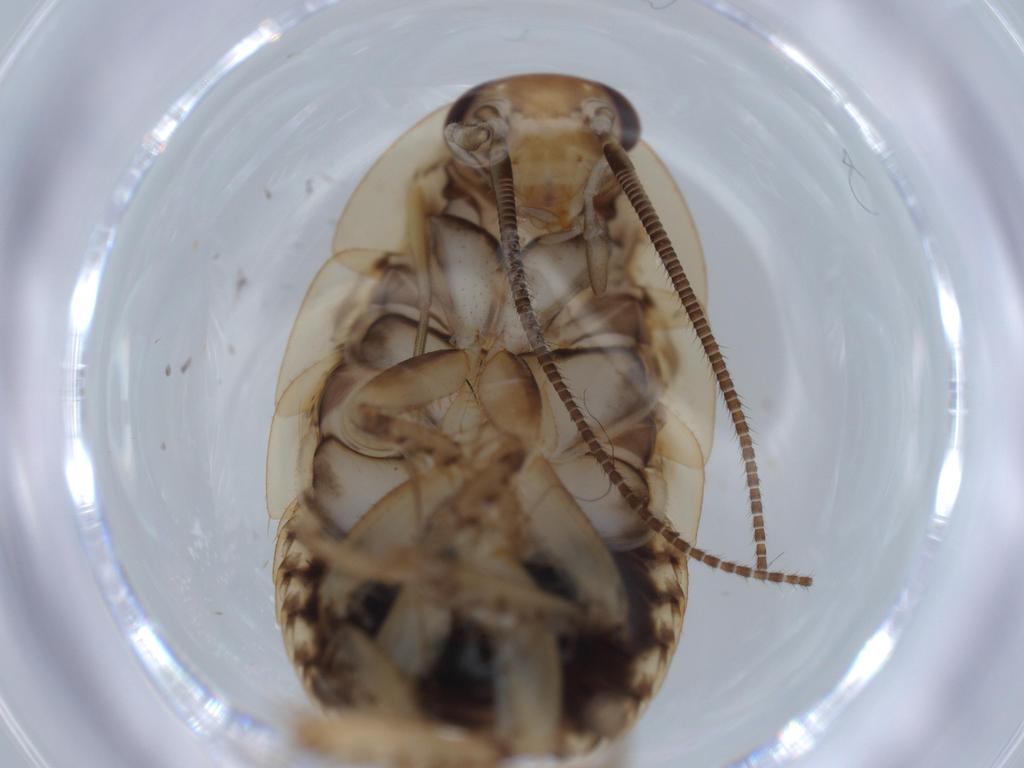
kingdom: Animalia
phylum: Arthropoda
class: Insecta
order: Blattodea
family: Ectobiidae
